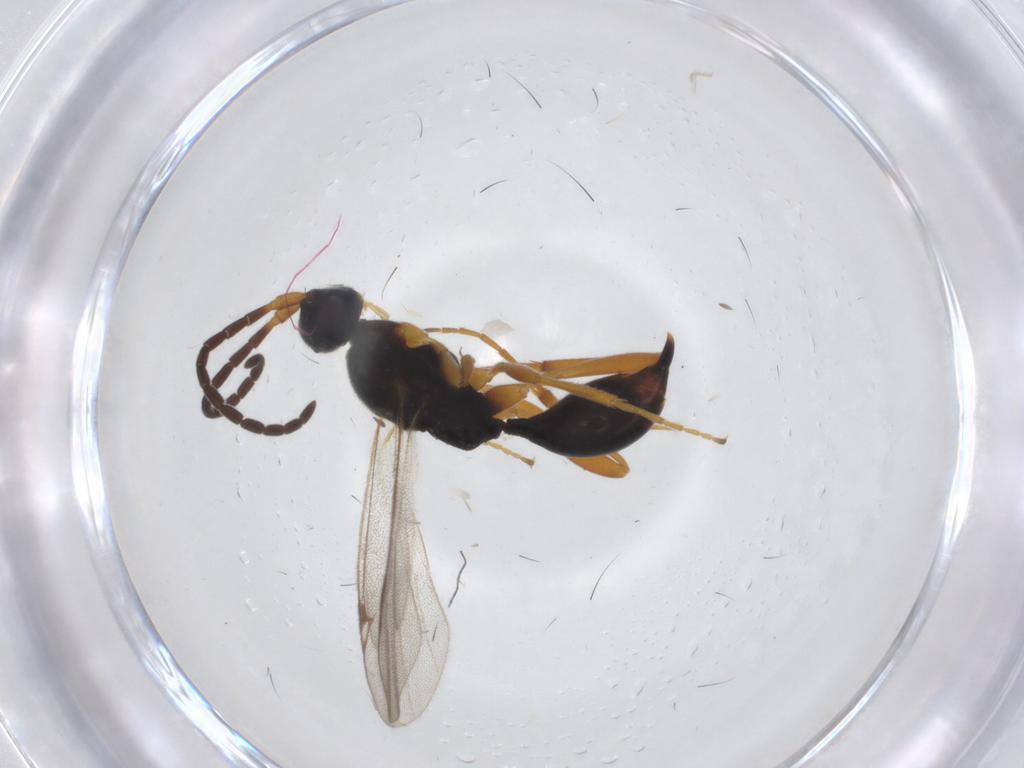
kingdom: Animalia
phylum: Arthropoda
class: Insecta
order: Hymenoptera
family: Proctotrupidae
